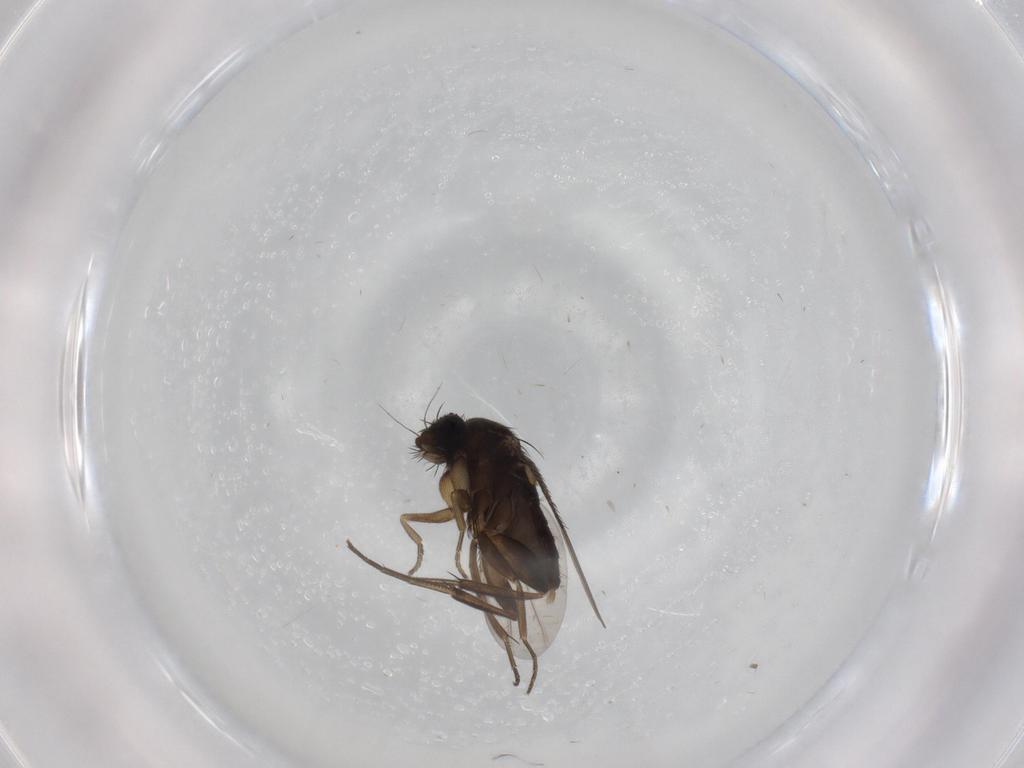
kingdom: Animalia
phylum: Arthropoda
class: Insecta
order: Diptera
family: Phoridae
